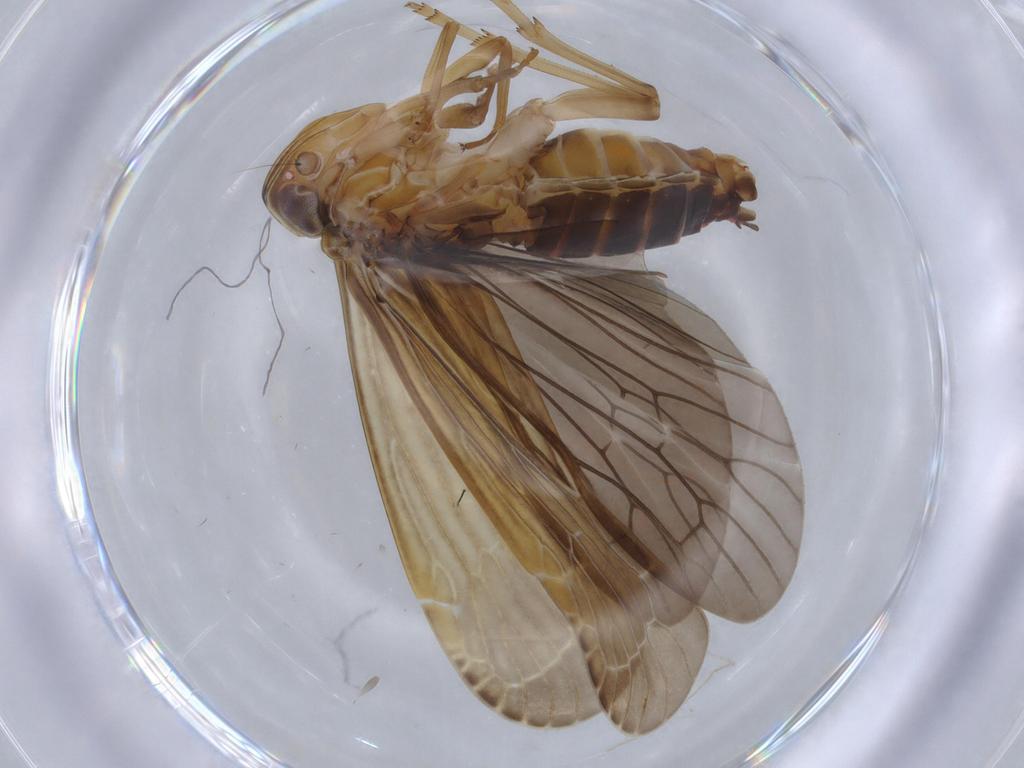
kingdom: Animalia
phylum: Arthropoda
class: Insecta
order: Hemiptera
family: Achilidae
